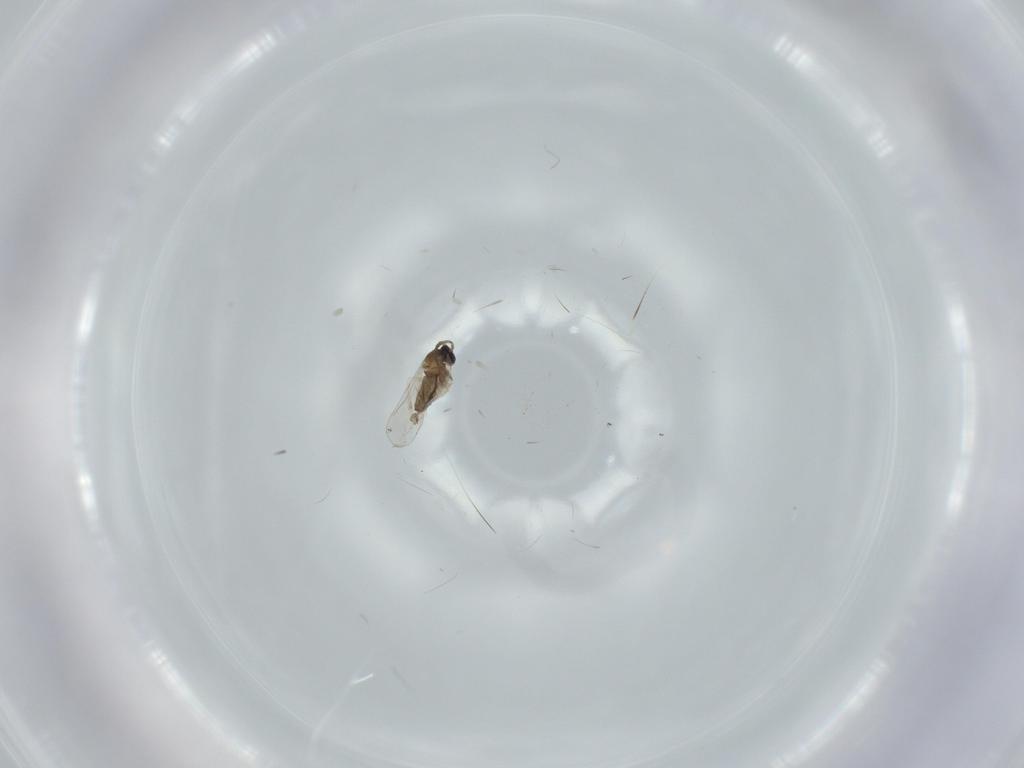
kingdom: Animalia
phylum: Arthropoda
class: Insecta
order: Diptera
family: Cecidomyiidae
